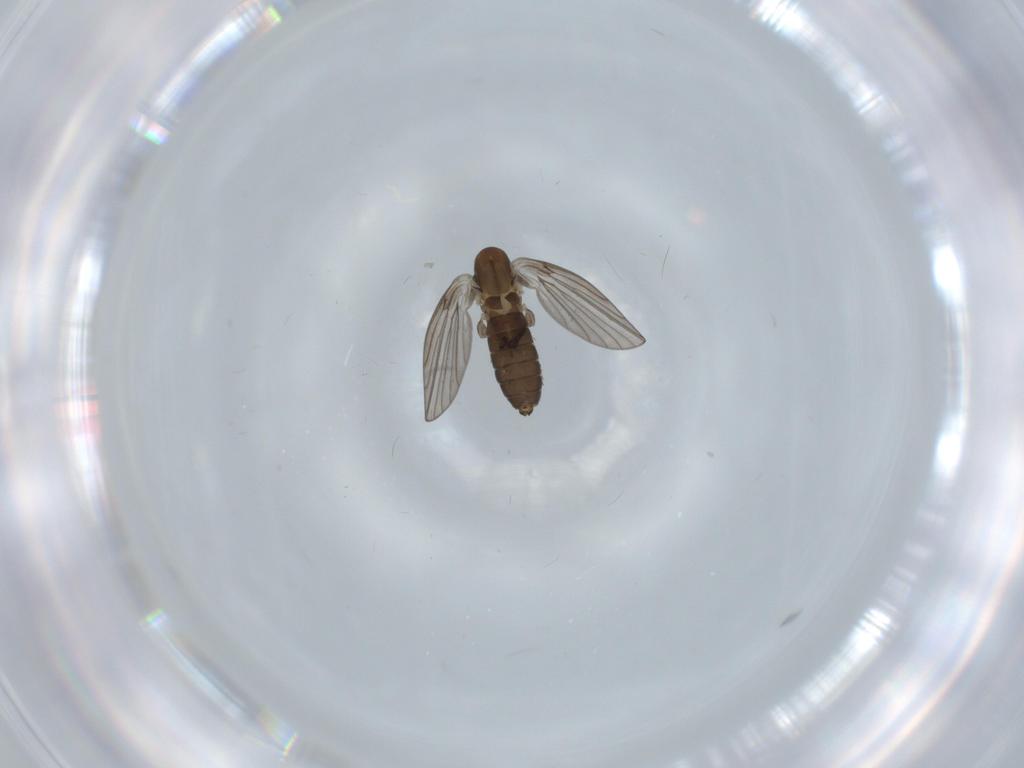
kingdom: Animalia
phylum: Arthropoda
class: Insecta
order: Diptera
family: Psychodidae
